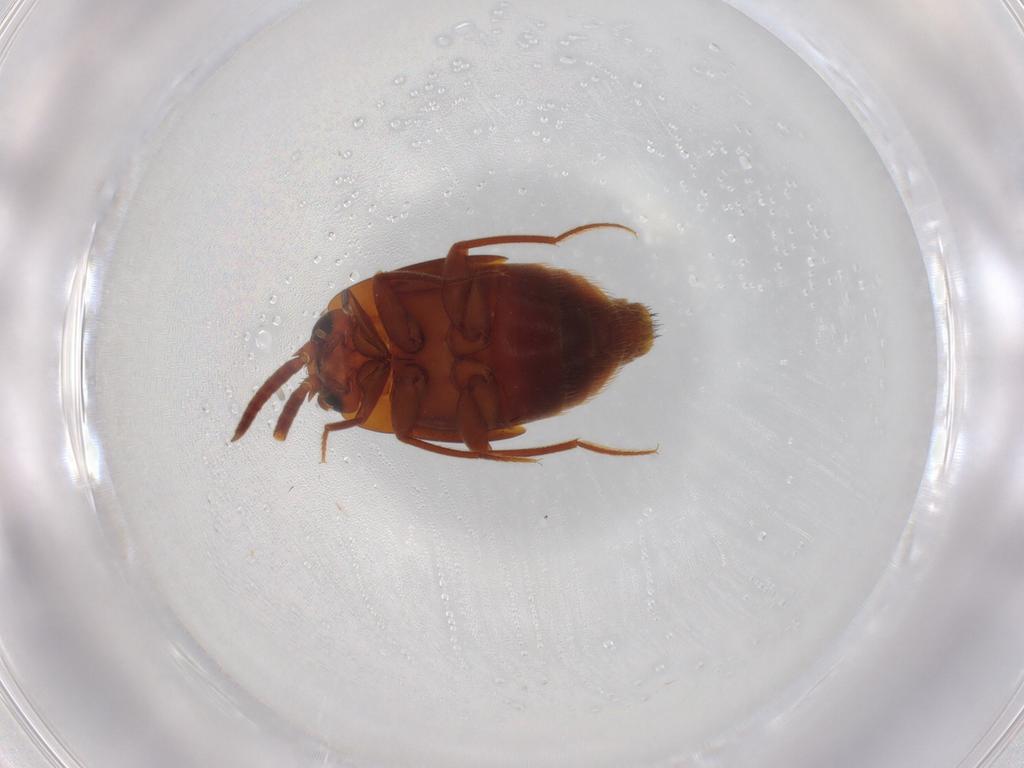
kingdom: Animalia
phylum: Arthropoda
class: Insecta
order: Coleoptera
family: Staphylinidae
